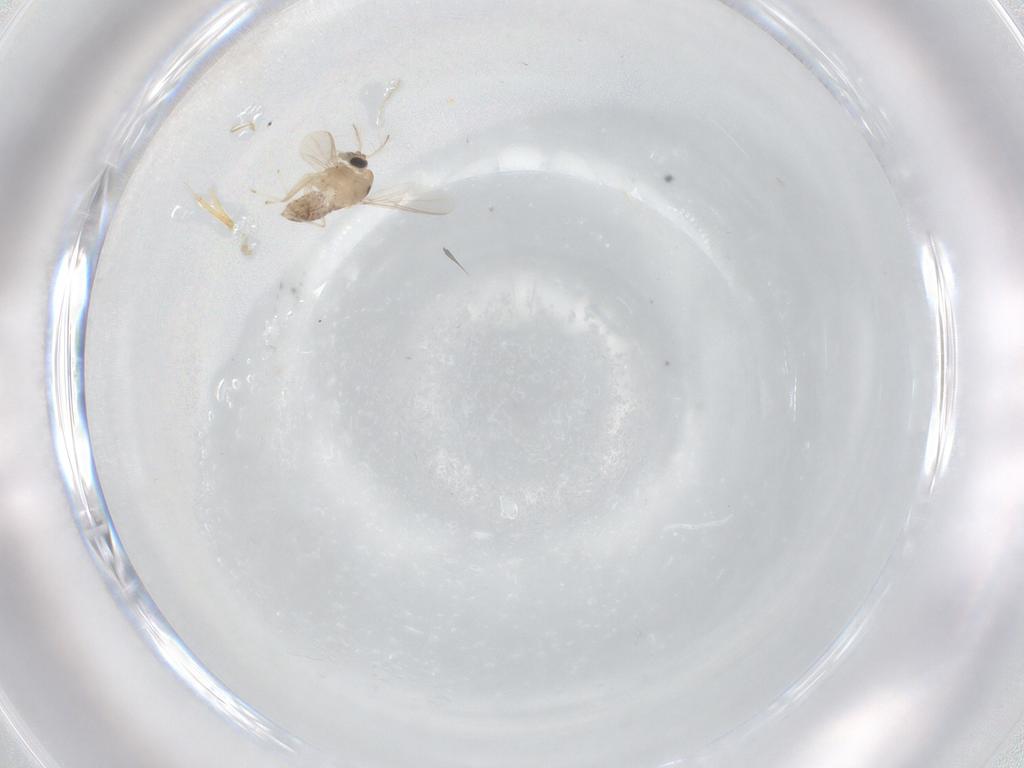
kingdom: Animalia
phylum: Arthropoda
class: Insecta
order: Diptera
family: Chironomidae
